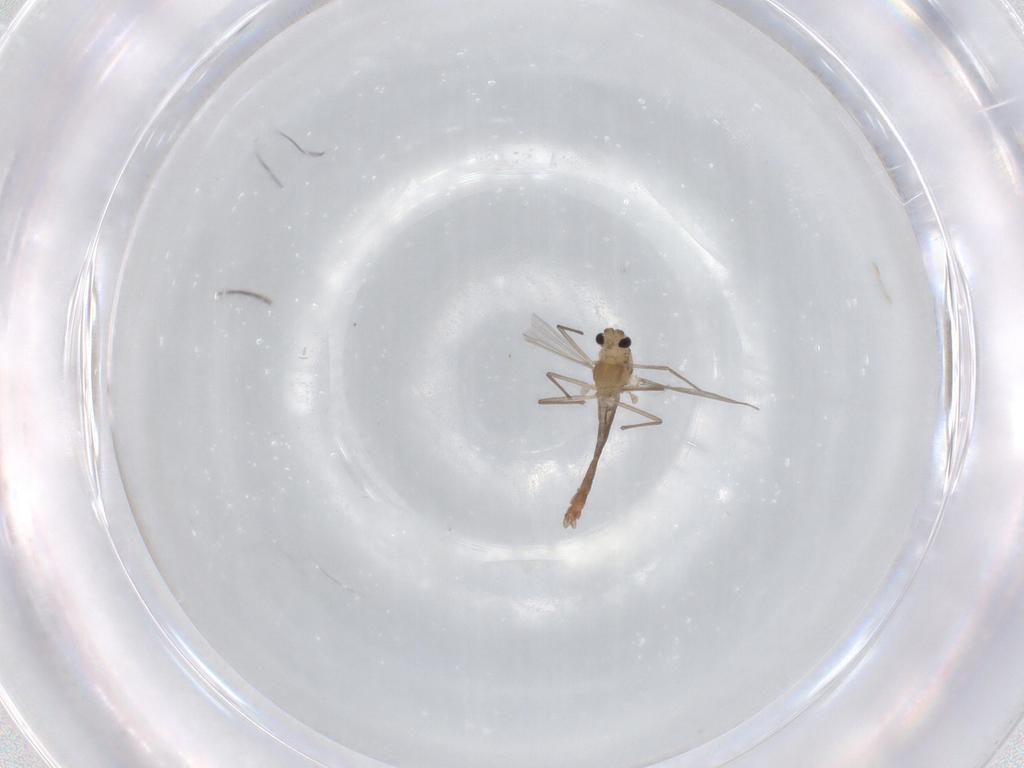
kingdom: Animalia
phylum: Arthropoda
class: Insecta
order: Diptera
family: Chironomidae
